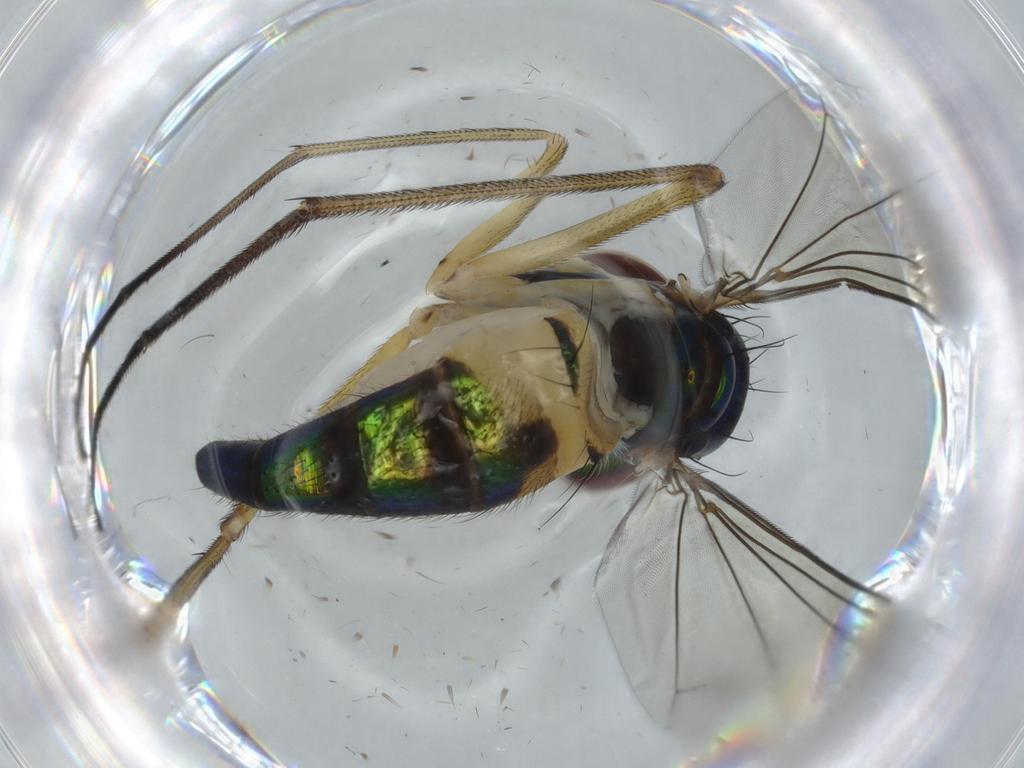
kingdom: Animalia
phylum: Arthropoda
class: Insecta
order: Diptera
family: Dolichopodidae
